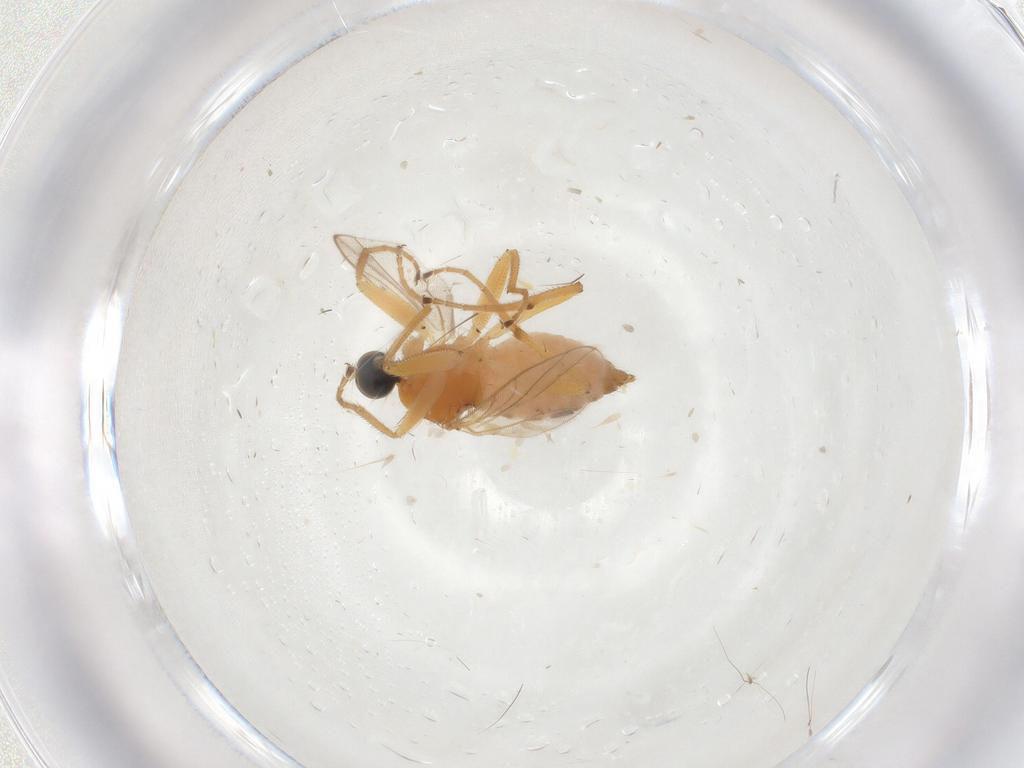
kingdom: Animalia
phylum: Arthropoda
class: Insecta
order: Diptera
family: Hybotidae
